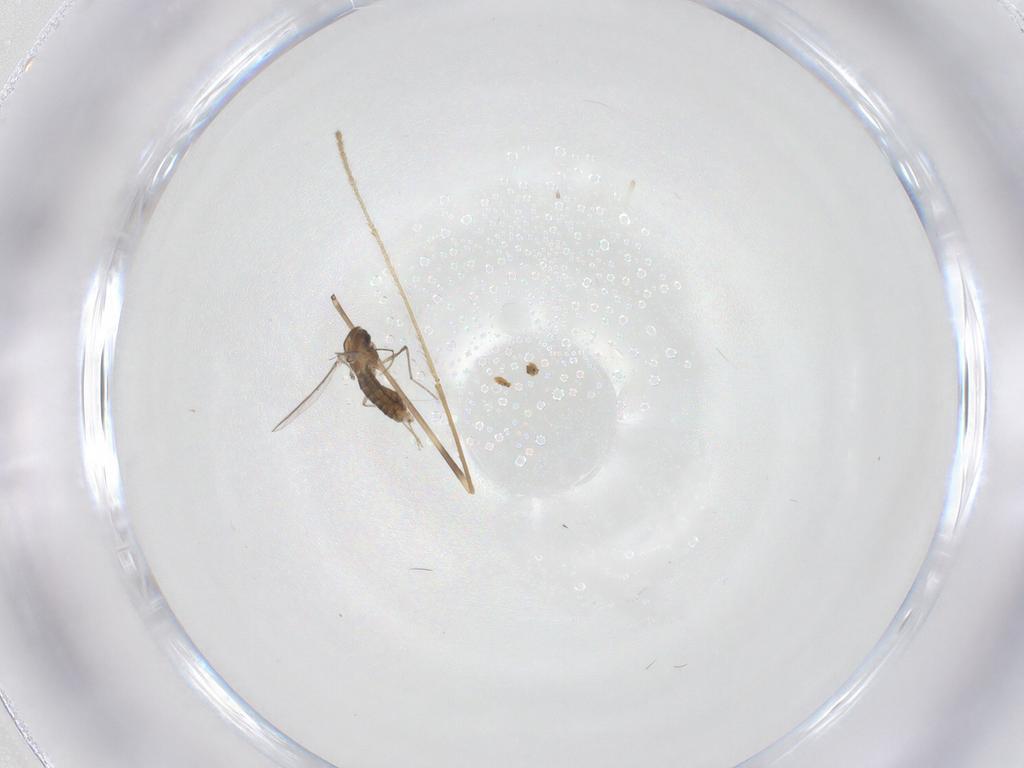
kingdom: Animalia
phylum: Arthropoda
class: Insecta
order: Diptera
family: Limoniidae
